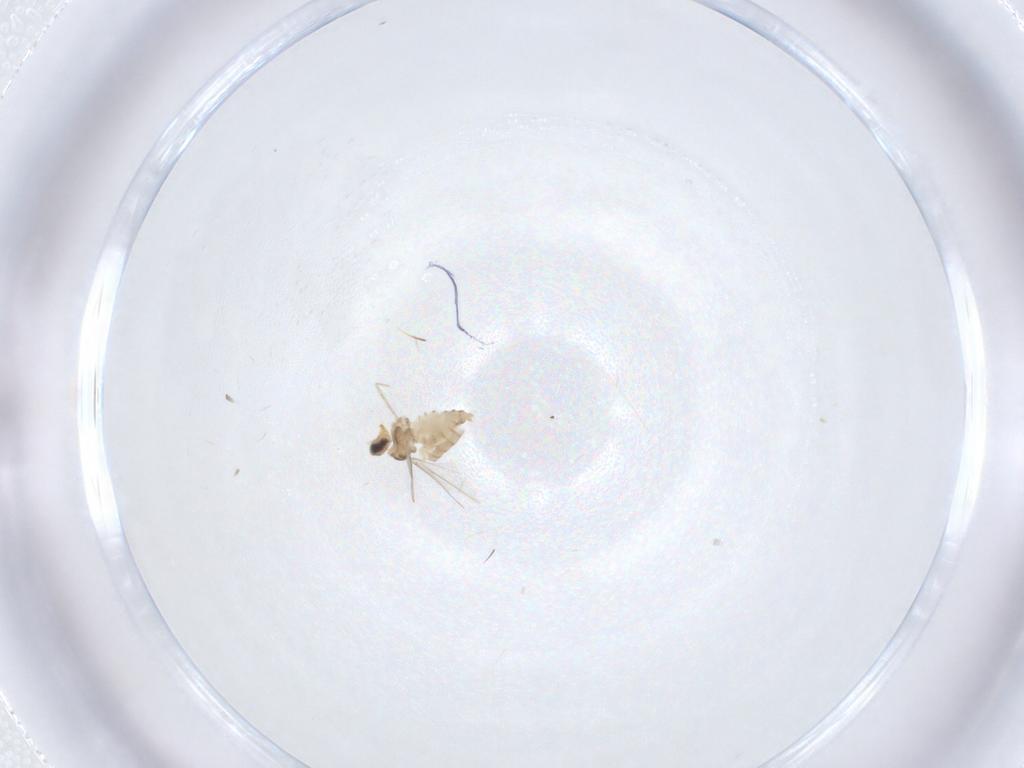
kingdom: Animalia
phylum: Arthropoda
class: Insecta
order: Diptera
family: Cecidomyiidae
